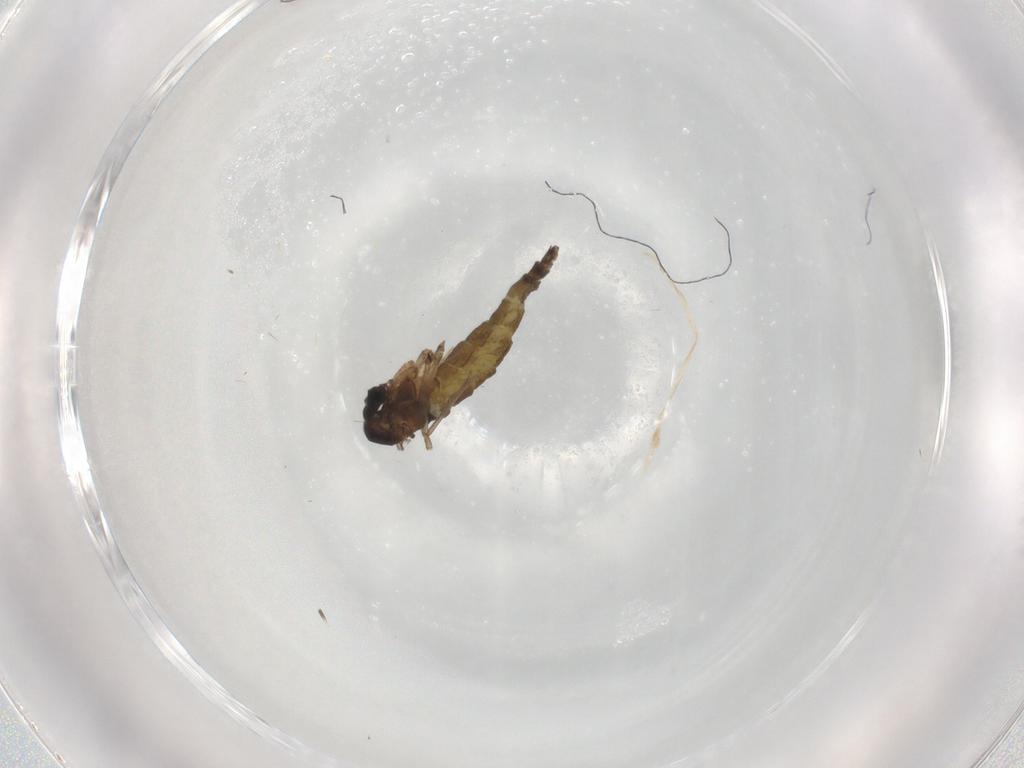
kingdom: Animalia
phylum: Arthropoda
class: Insecta
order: Diptera
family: Sciaridae
